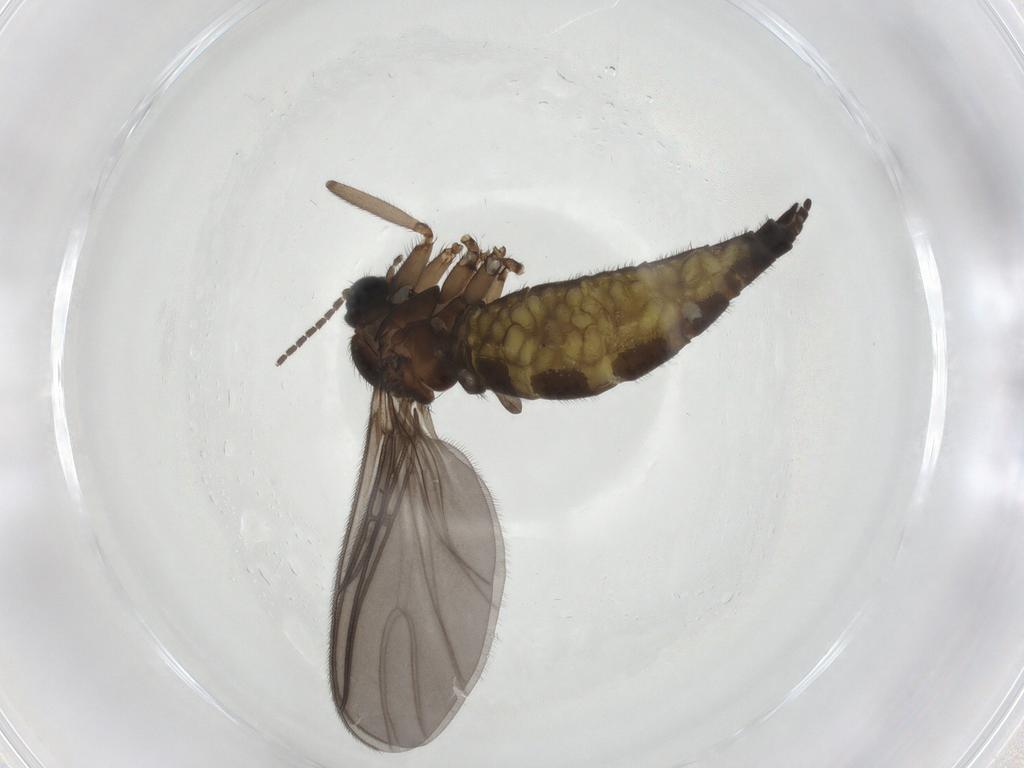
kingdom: Animalia
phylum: Arthropoda
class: Insecta
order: Diptera
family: Sciaridae
